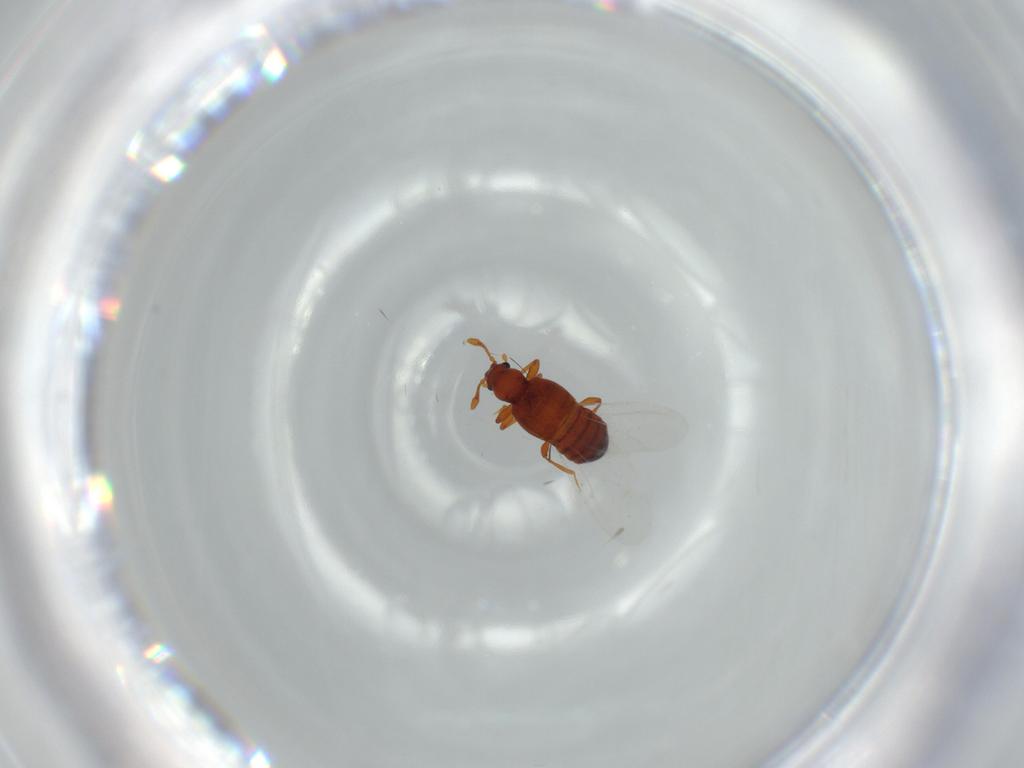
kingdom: Animalia
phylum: Arthropoda
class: Insecta
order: Coleoptera
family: Staphylinidae
